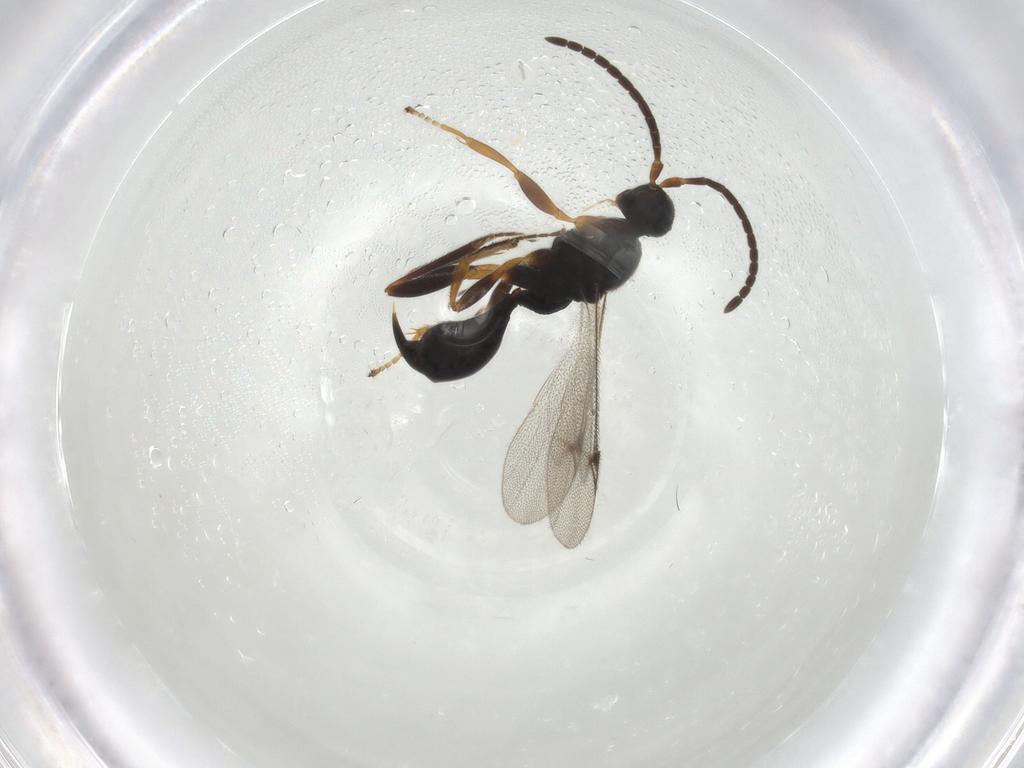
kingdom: Animalia
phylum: Arthropoda
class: Insecta
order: Hymenoptera
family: Proctotrupidae
